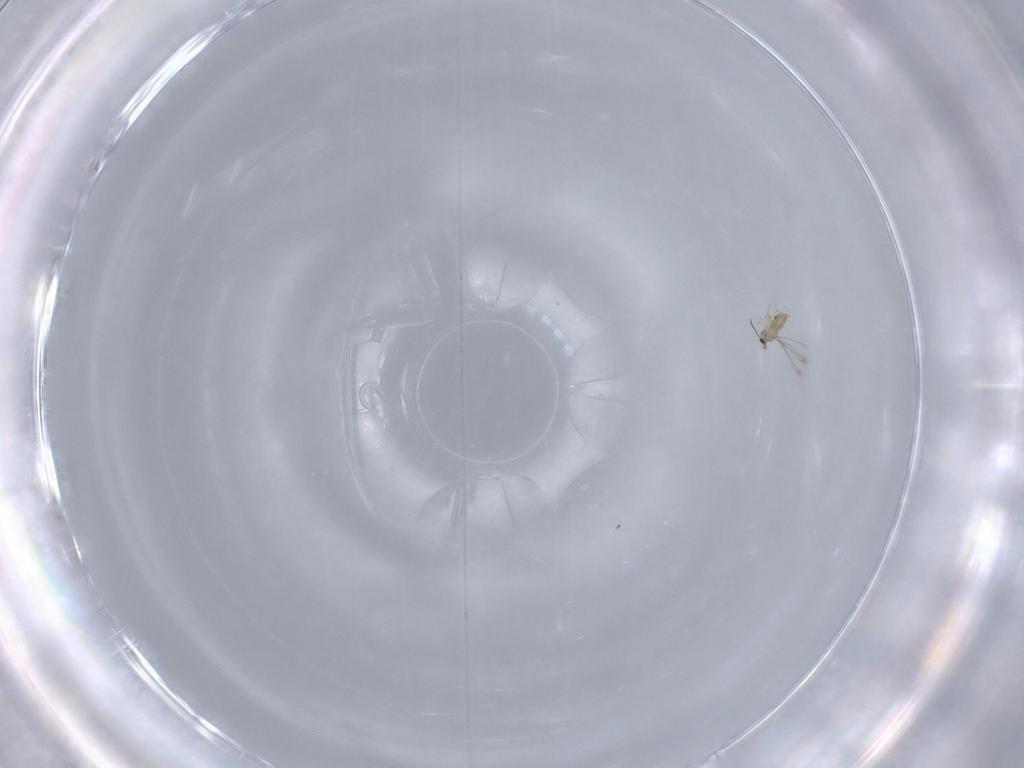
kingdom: Animalia
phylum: Arthropoda
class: Insecta
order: Hymenoptera
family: Mymaridae
